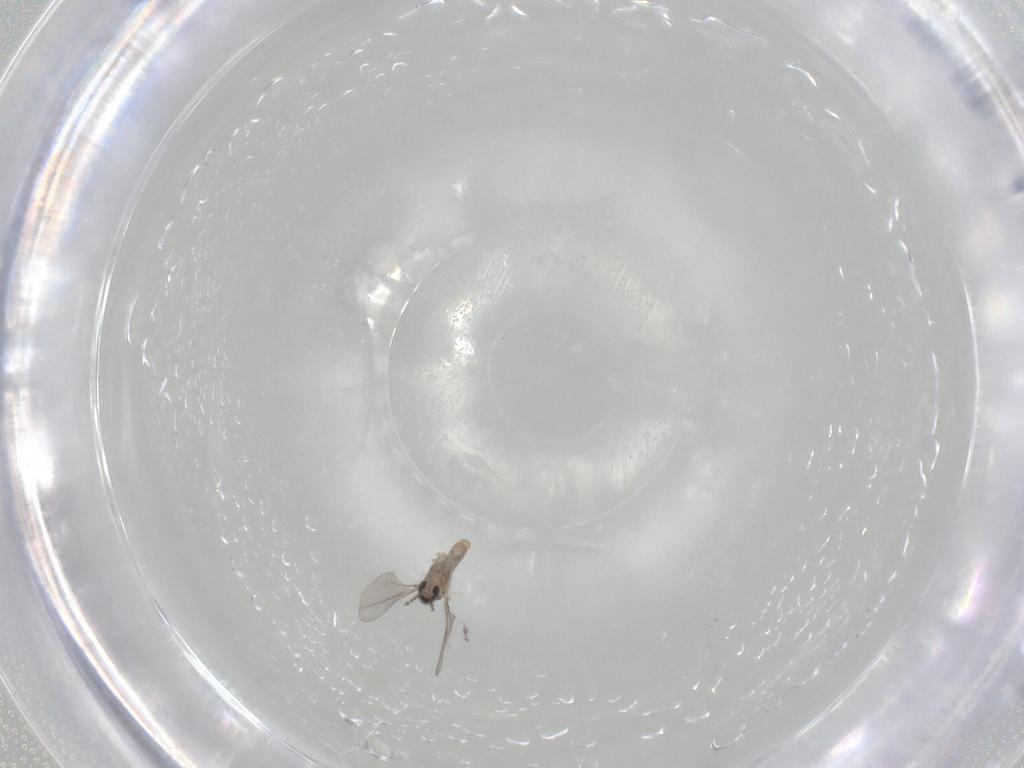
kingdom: Animalia
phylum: Arthropoda
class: Insecta
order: Diptera
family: Cecidomyiidae
